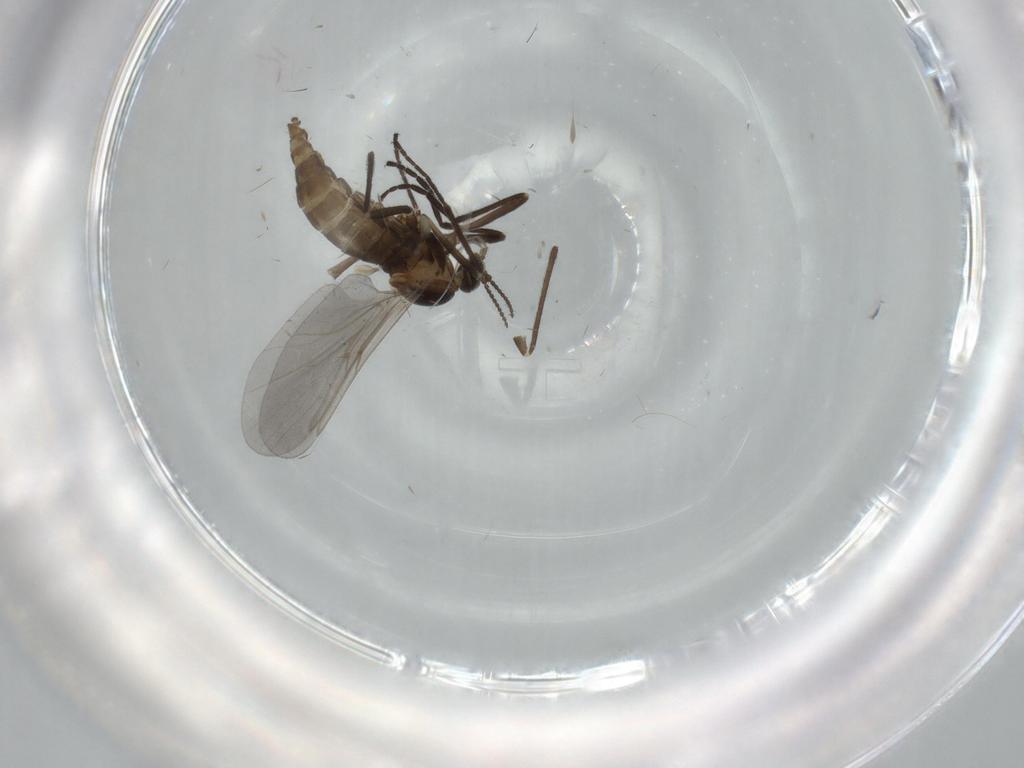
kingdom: Animalia
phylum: Arthropoda
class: Insecta
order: Diptera
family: Cecidomyiidae
